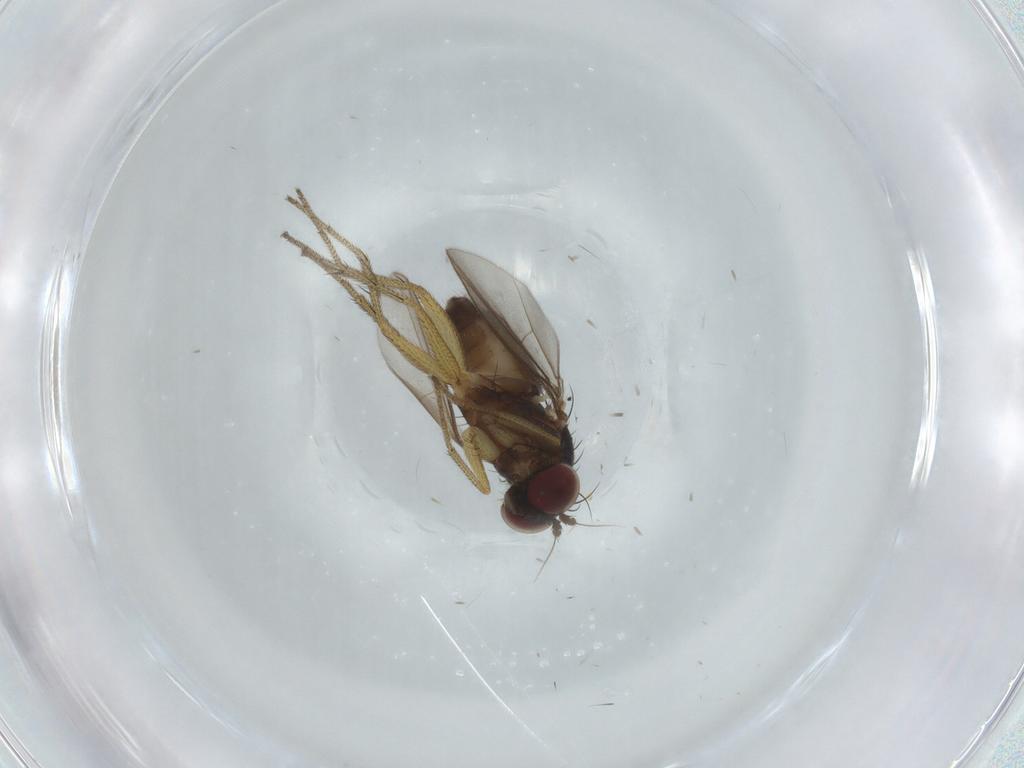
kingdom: Animalia
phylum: Arthropoda
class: Insecta
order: Diptera
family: Dolichopodidae
